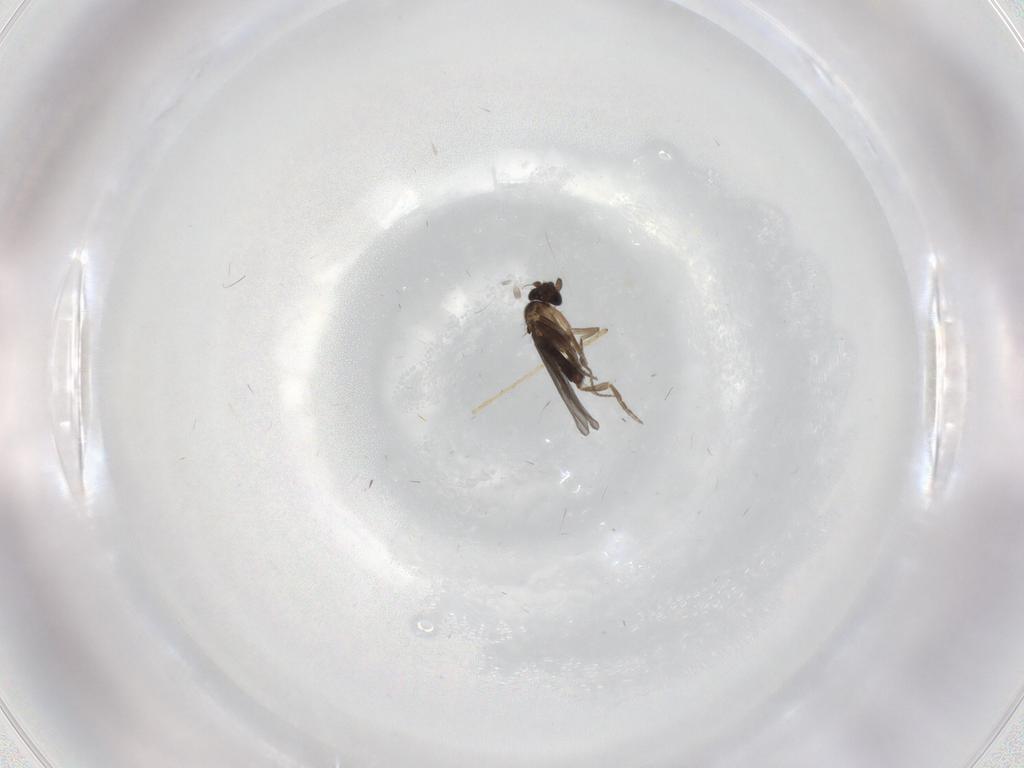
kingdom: Animalia
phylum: Arthropoda
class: Insecta
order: Diptera
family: Limoniidae
